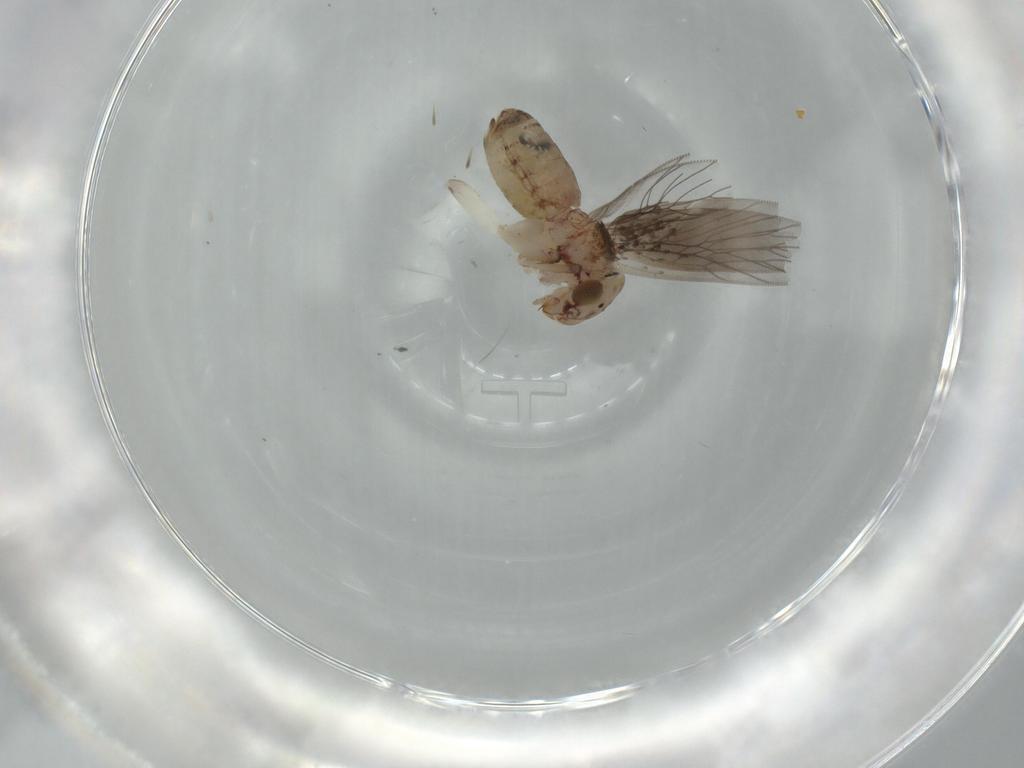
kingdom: Animalia
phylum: Arthropoda
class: Insecta
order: Psocodea
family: Lepidopsocidae
